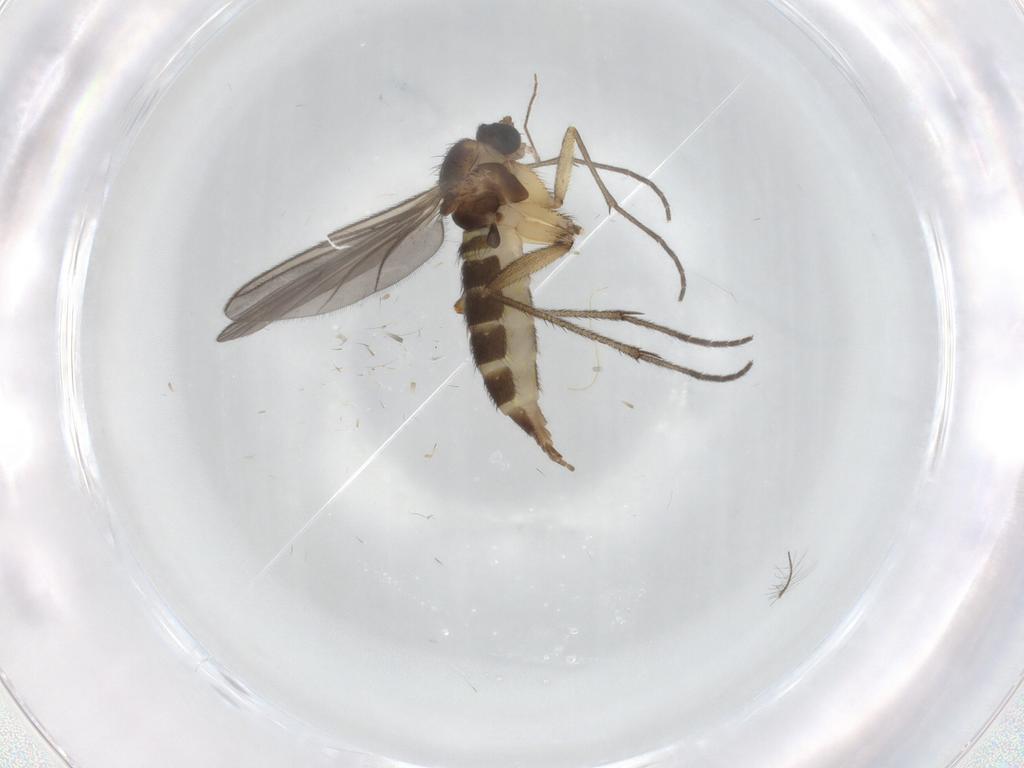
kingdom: Animalia
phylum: Arthropoda
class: Insecta
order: Diptera
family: Sciaridae
